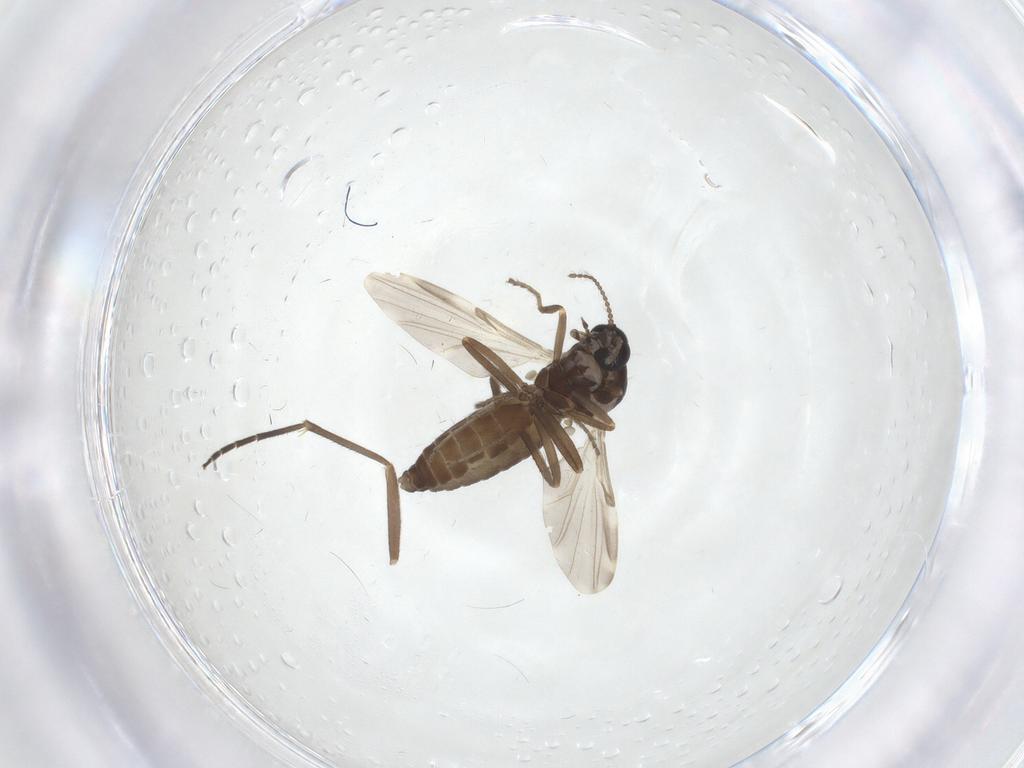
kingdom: Animalia
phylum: Arthropoda
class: Insecta
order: Diptera
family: Ceratopogonidae
